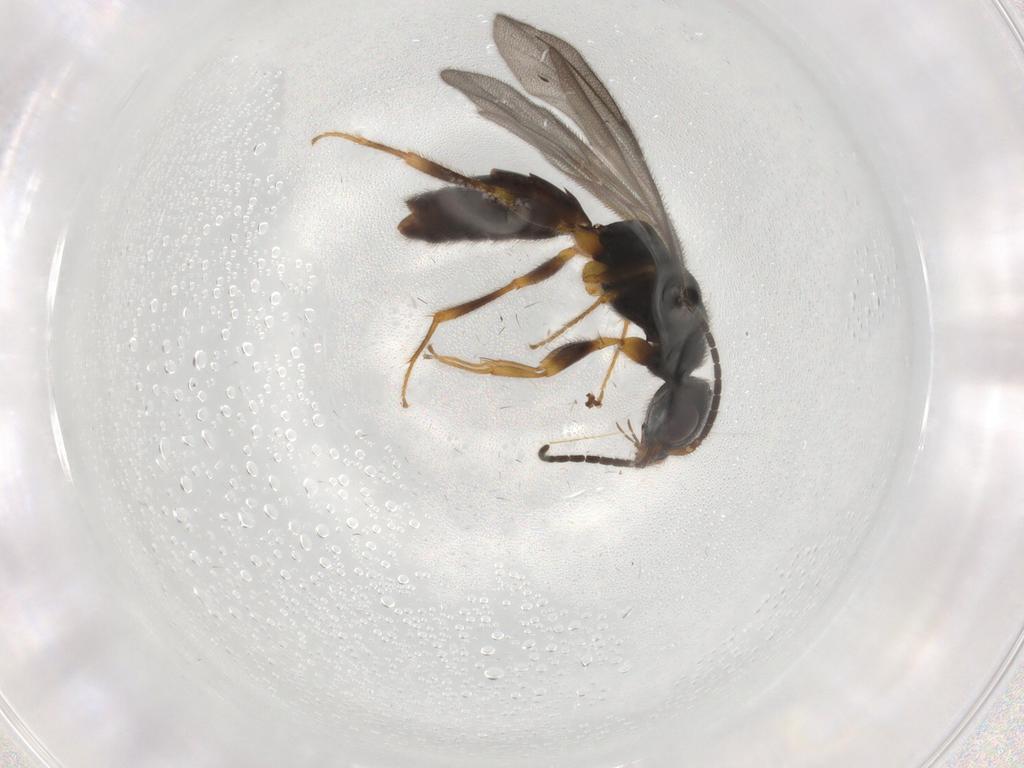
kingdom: Animalia
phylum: Arthropoda
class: Insecta
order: Hymenoptera
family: Bethylidae
